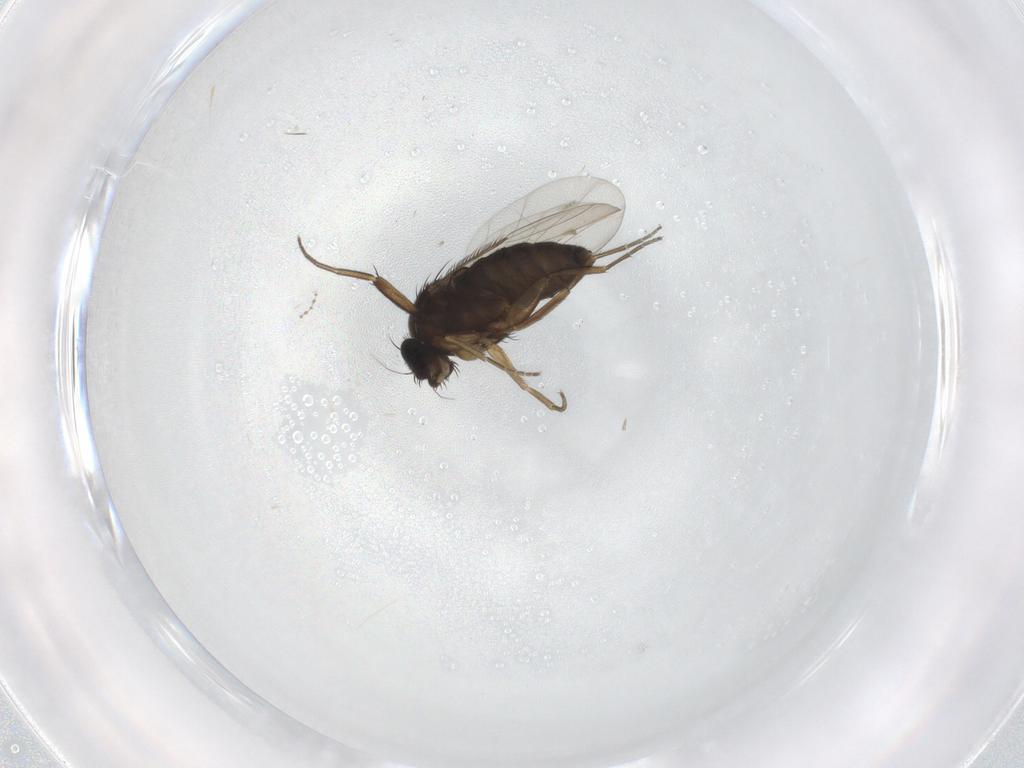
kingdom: Animalia
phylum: Arthropoda
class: Insecta
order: Diptera
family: Phoridae
